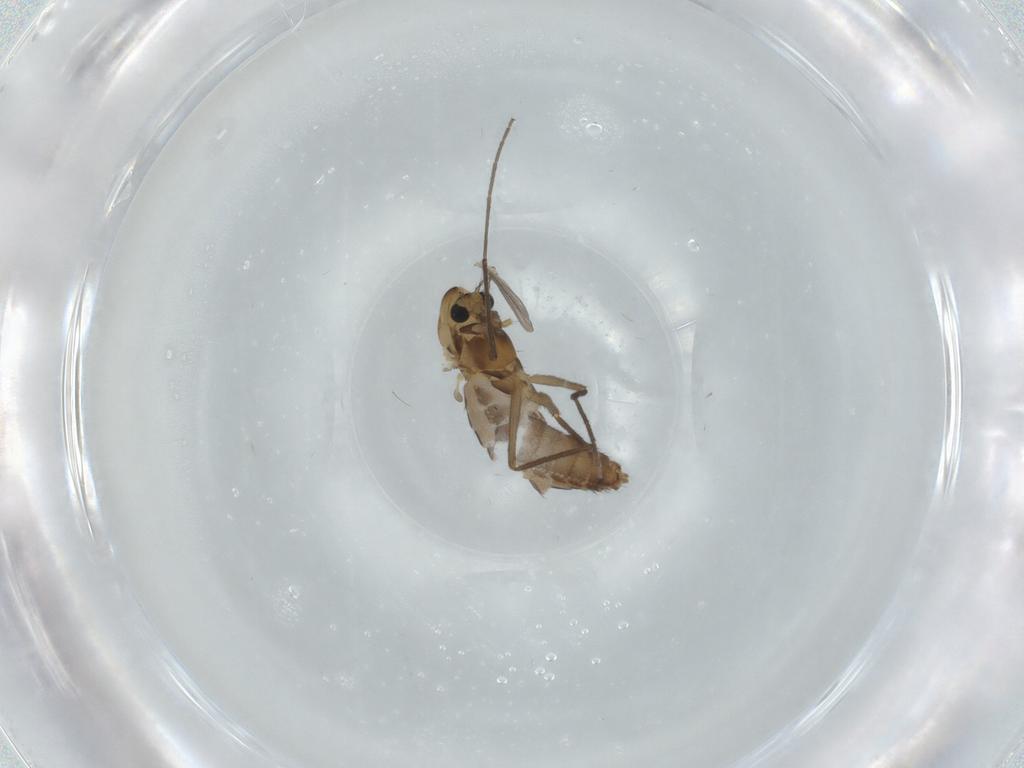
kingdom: Animalia
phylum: Arthropoda
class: Insecta
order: Diptera
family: Chironomidae
